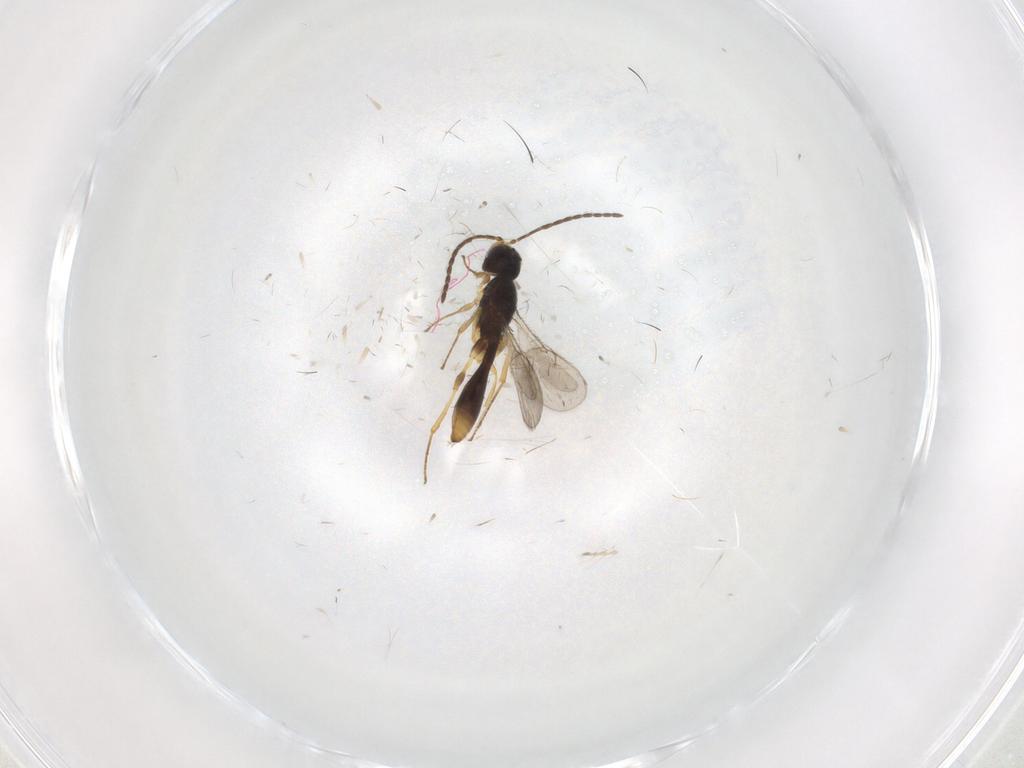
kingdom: Animalia
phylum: Arthropoda
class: Insecta
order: Hymenoptera
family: Scelionidae
